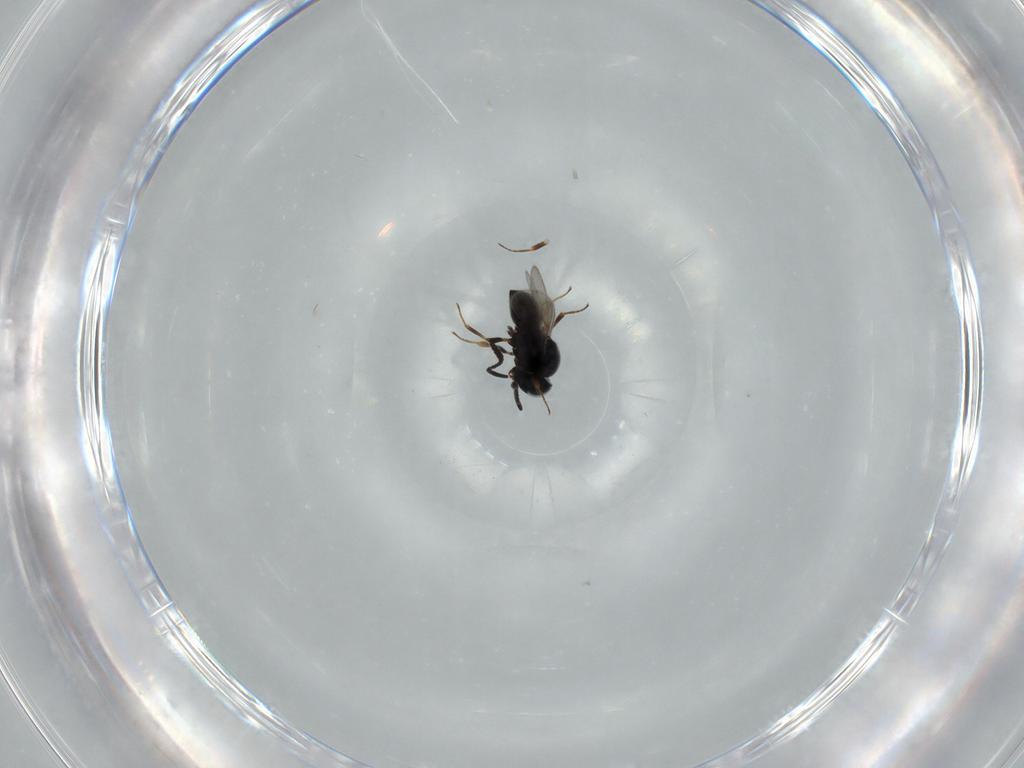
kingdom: Animalia
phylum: Arthropoda
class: Insecta
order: Hymenoptera
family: Scelionidae
